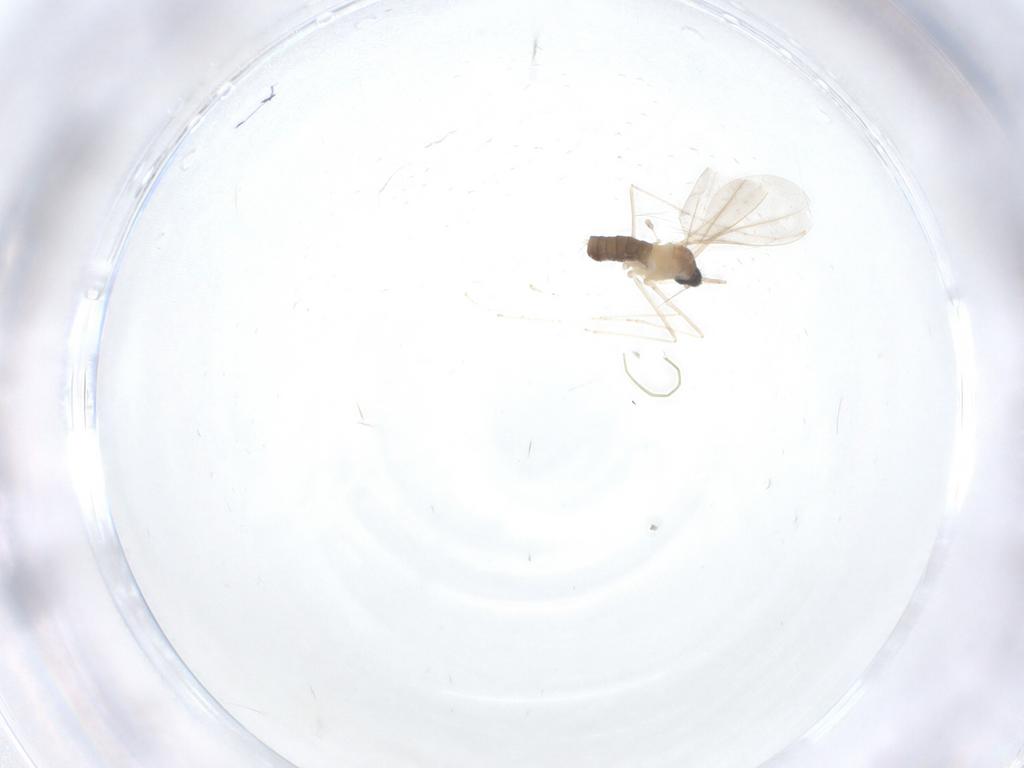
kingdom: Animalia
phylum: Arthropoda
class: Insecta
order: Diptera
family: Cecidomyiidae
